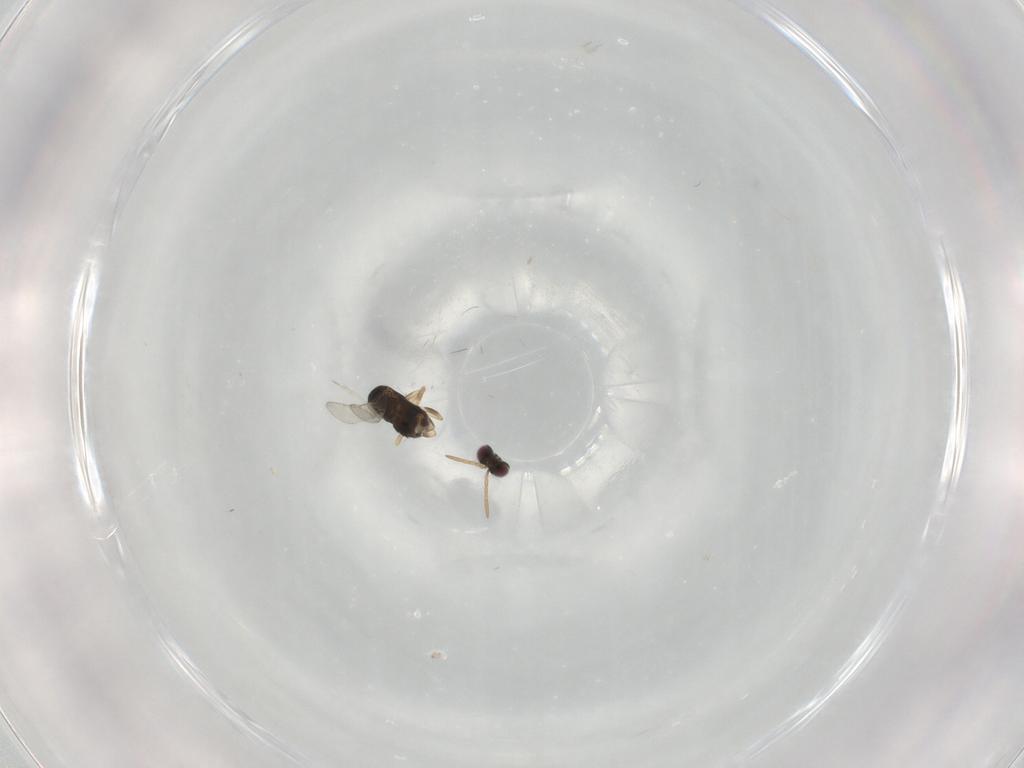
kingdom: Animalia
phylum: Arthropoda
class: Insecta
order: Hymenoptera
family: Aphelinidae
